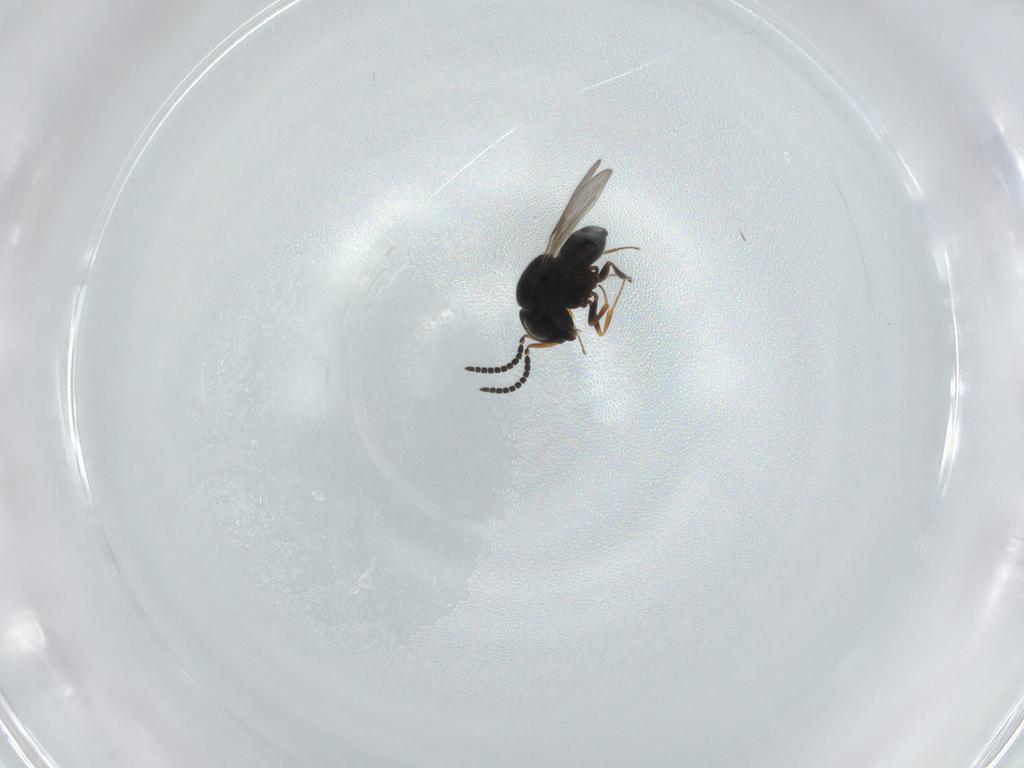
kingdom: Animalia
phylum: Arthropoda
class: Insecta
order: Hymenoptera
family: Scelionidae
